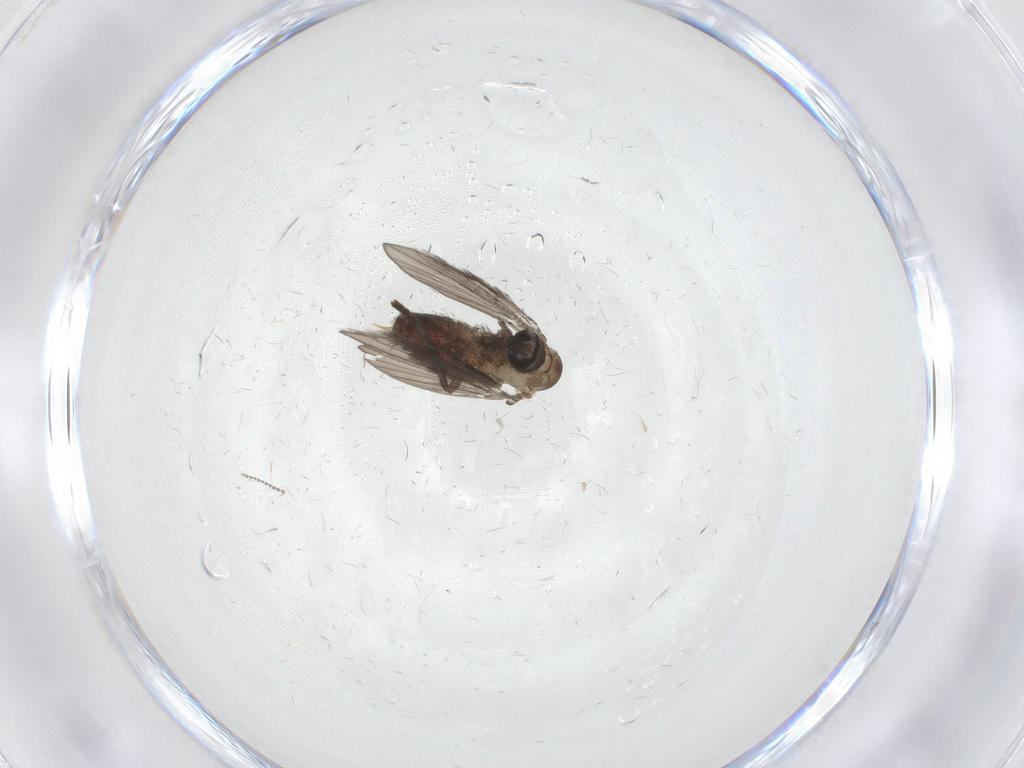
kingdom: Animalia
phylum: Arthropoda
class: Insecta
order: Diptera
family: Psychodidae
